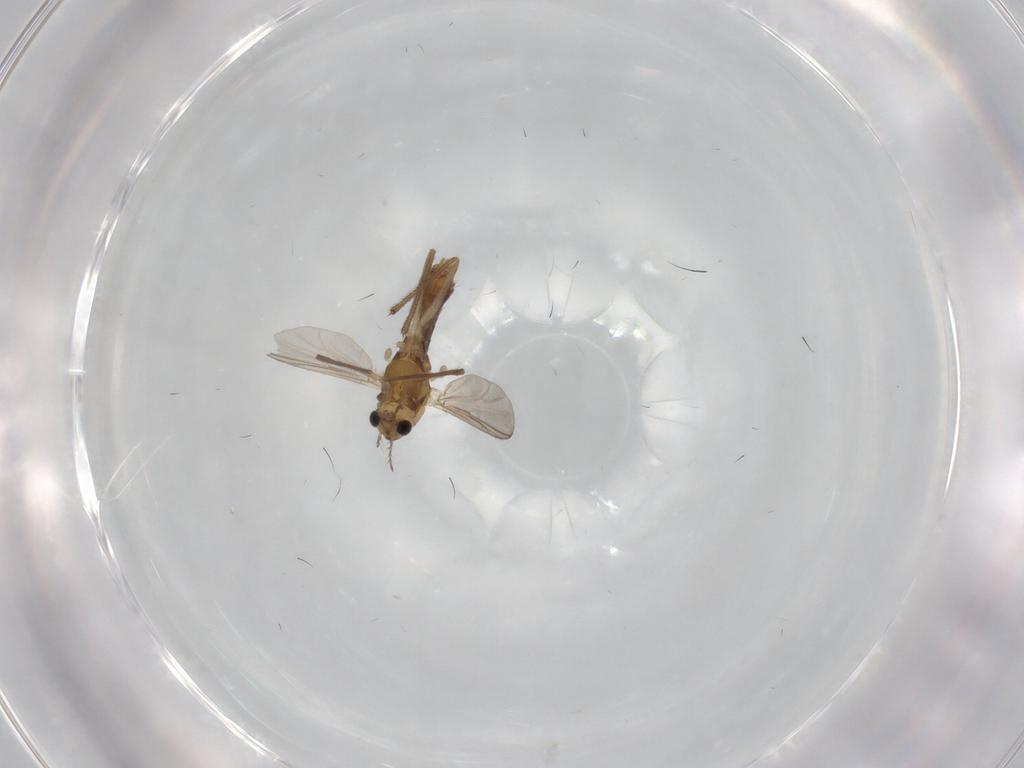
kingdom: Animalia
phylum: Arthropoda
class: Insecta
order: Diptera
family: Chironomidae
